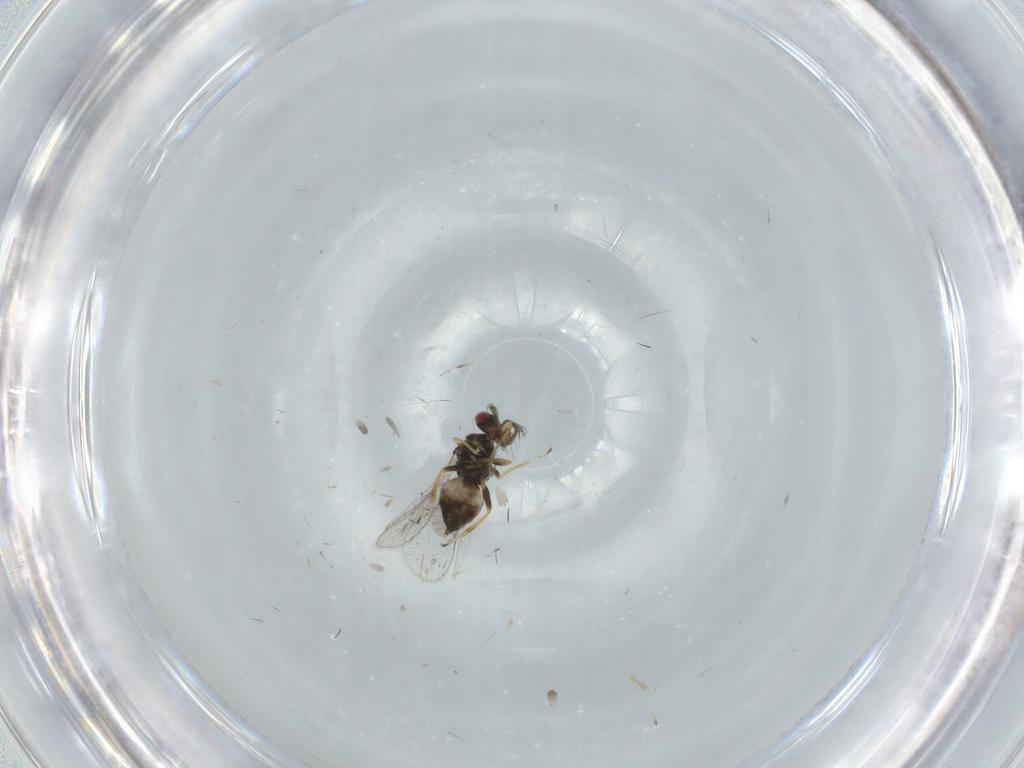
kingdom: Animalia
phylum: Arthropoda
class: Insecta
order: Hymenoptera
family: Eulophidae
